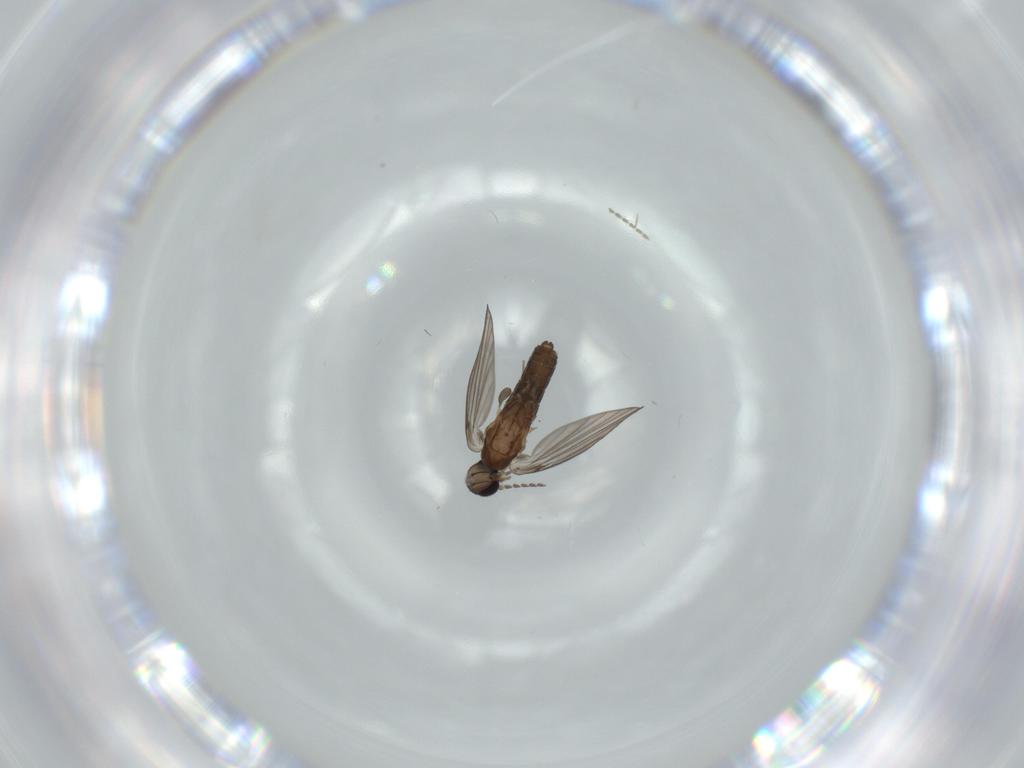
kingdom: Animalia
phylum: Arthropoda
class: Insecta
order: Diptera
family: Psychodidae
